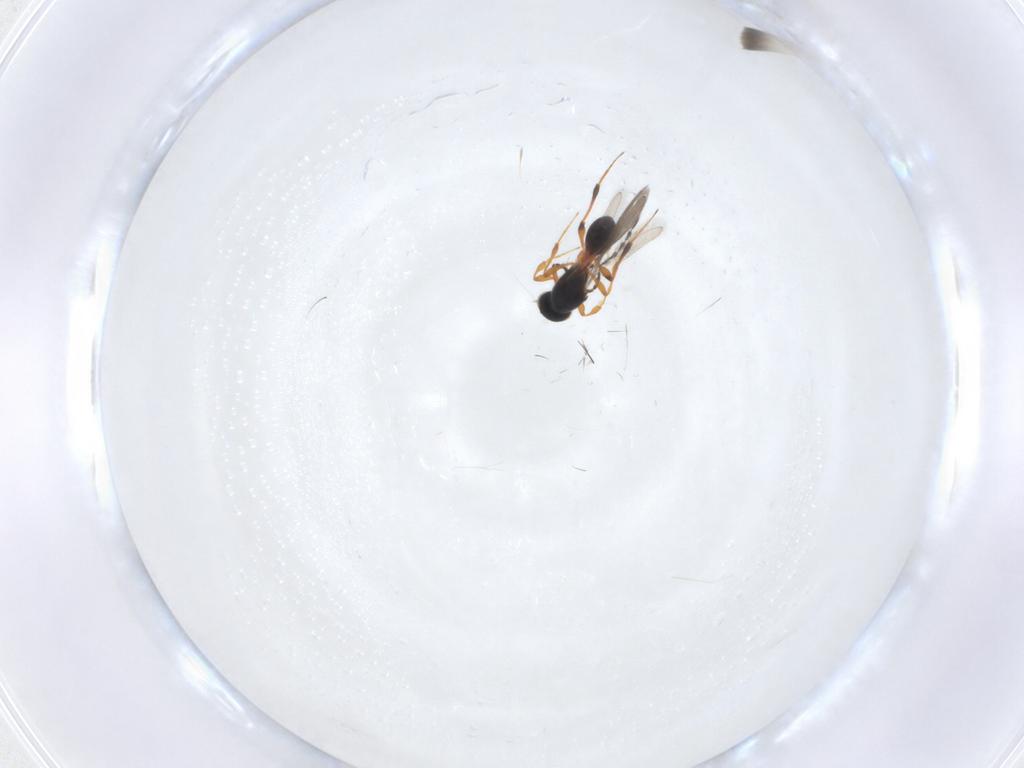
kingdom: Animalia
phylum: Arthropoda
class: Insecta
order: Hymenoptera
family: Platygastridae
